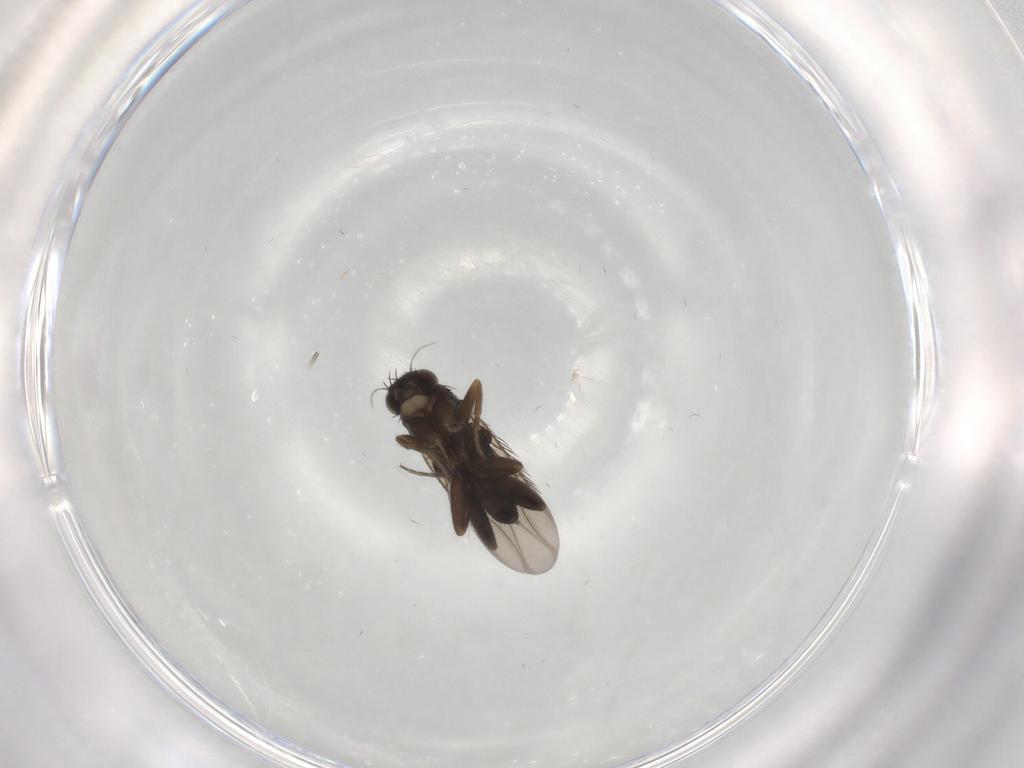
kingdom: Animalia
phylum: Arthropoda
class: Insecta
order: Diptera
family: Phoridae
